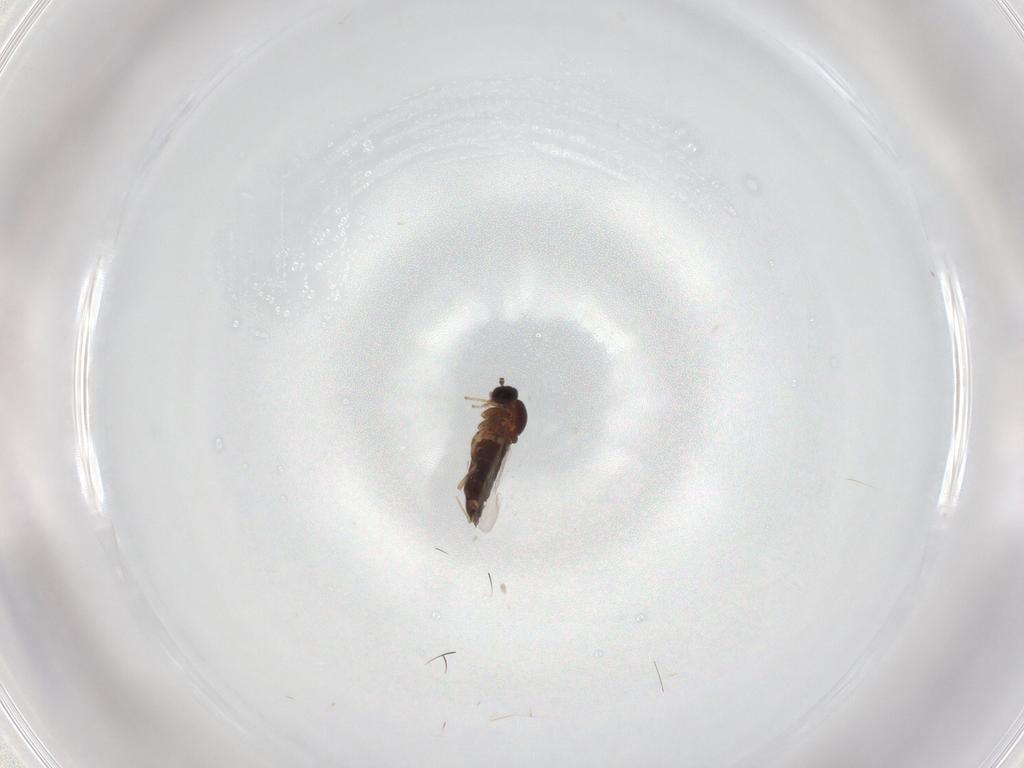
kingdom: Animalia
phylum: Arthropoda
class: Insecta
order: Diptera
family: Scatopsidae
